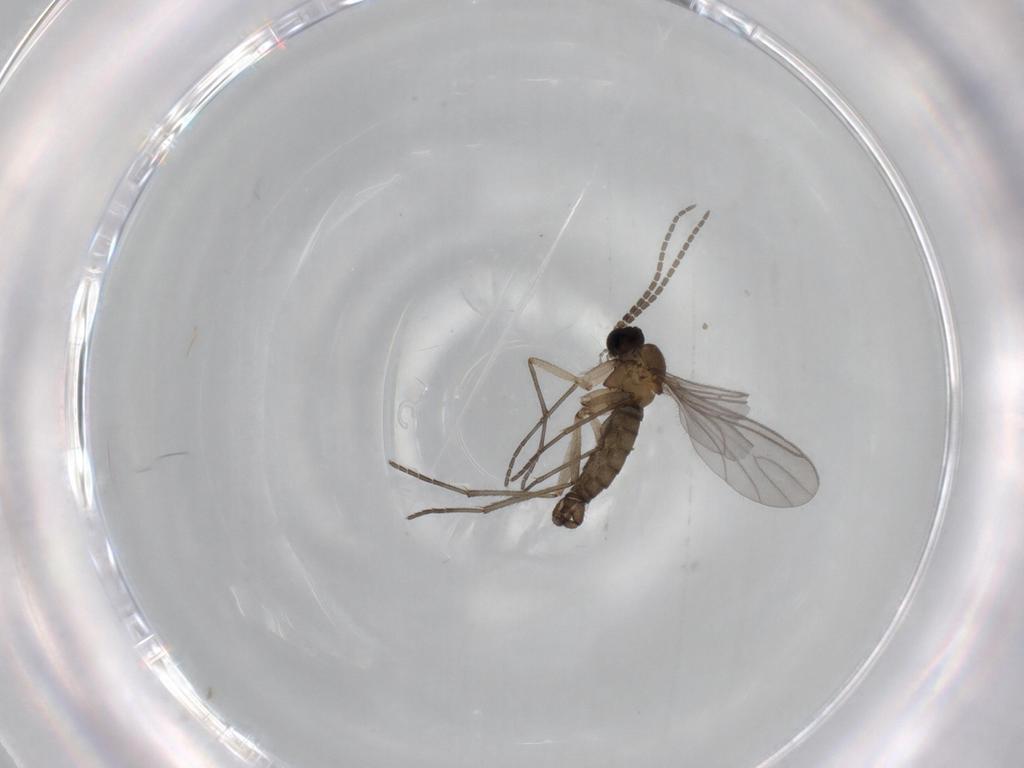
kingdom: Animalia
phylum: Arthropoda
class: Insecta
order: Diptera
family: Sciaridae
